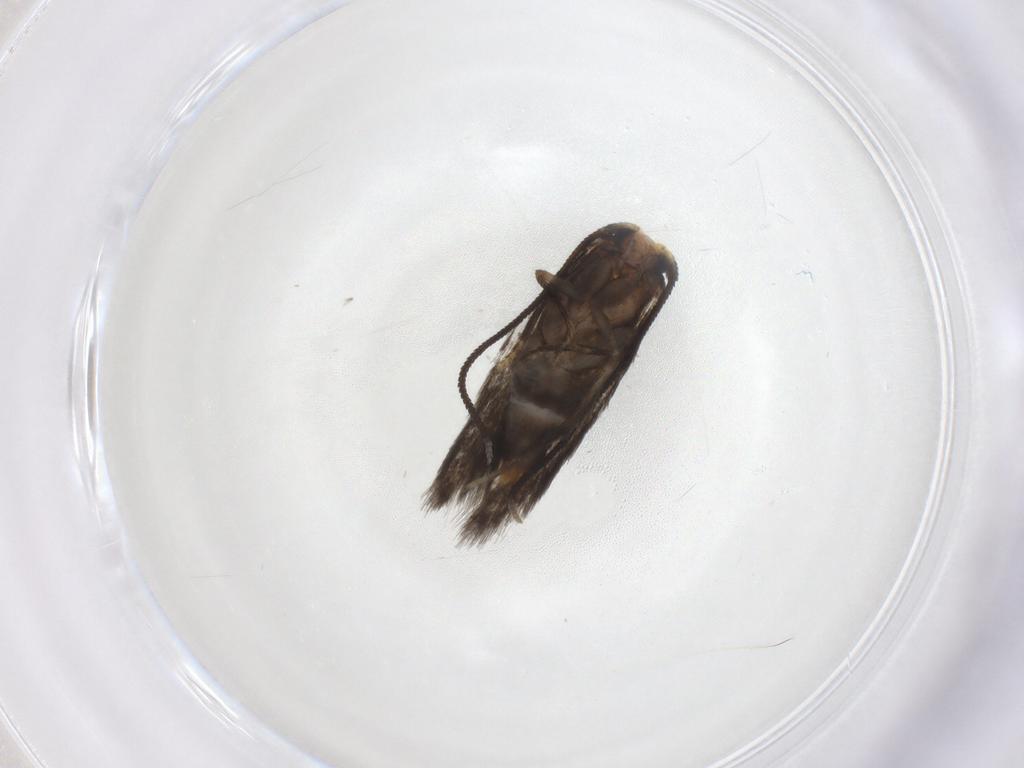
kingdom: Animalia
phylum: Arthropoda
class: Insecta
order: Lepidoptera
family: Nepticulidae
